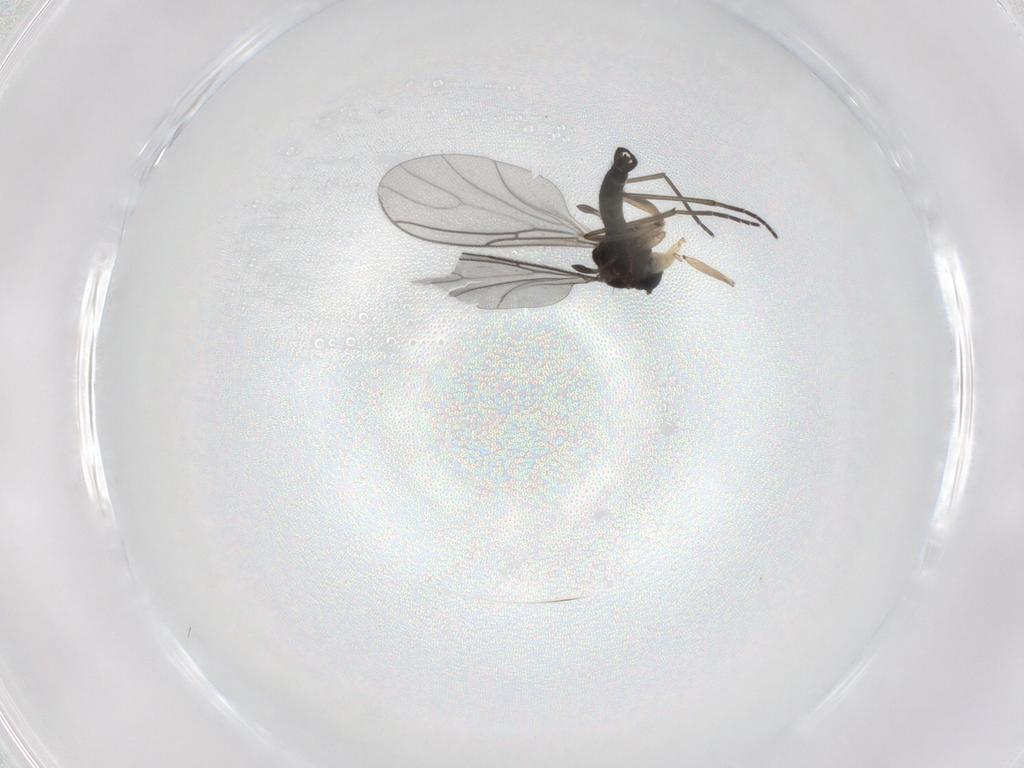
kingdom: Animalia
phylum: Arthropoda
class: Insecta
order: Diptera
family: Sciaridae
